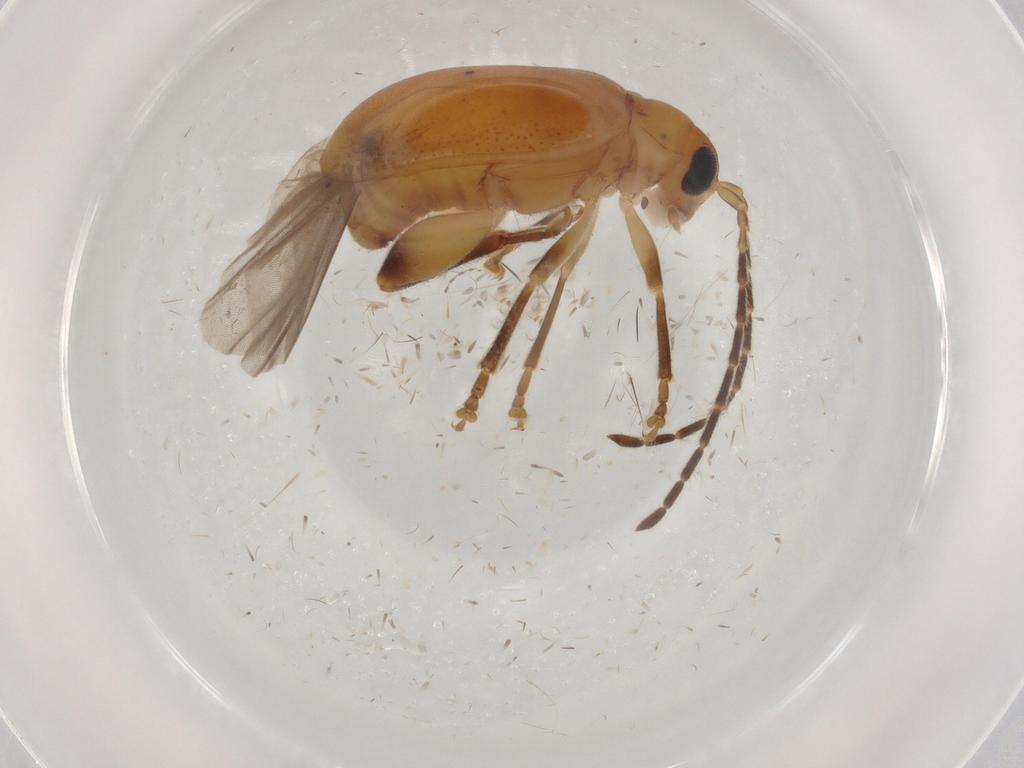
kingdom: Animalia
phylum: Arthropoda
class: Insecta
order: Coleoptera
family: Chrysomelidae
